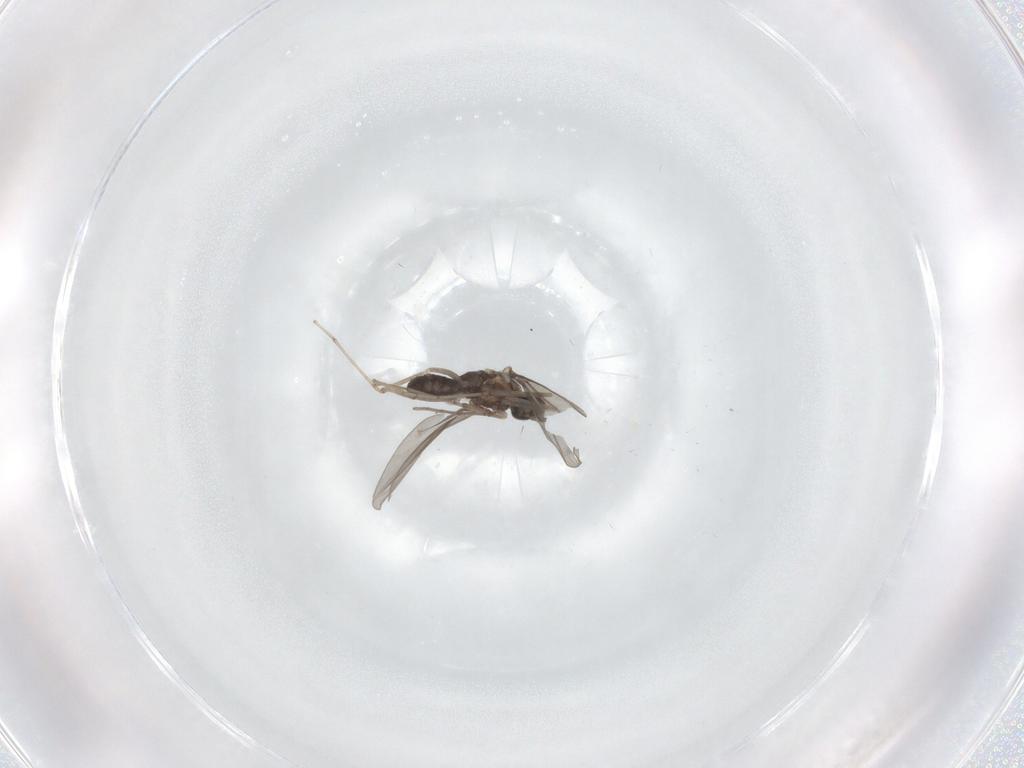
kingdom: Animalia
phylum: Arthropoda
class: Insecta
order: Diptera
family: Cecidomyiidae
